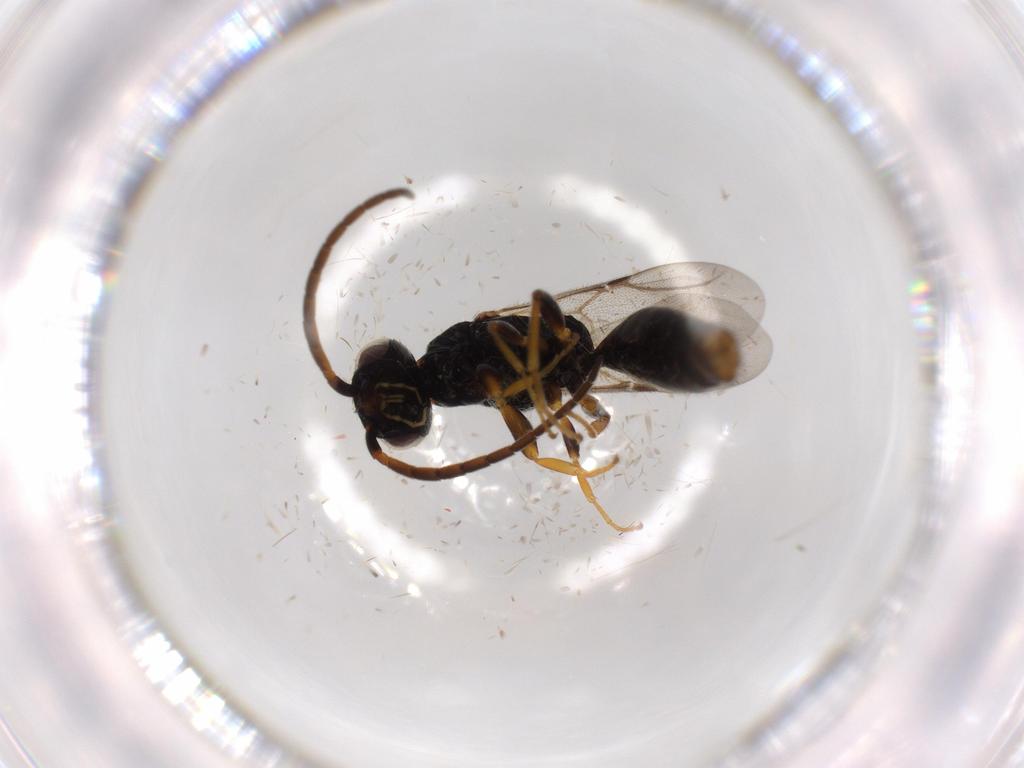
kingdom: Animalia
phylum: Arthropoda
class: Insecta
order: Hymenoptera
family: Bethylidae
